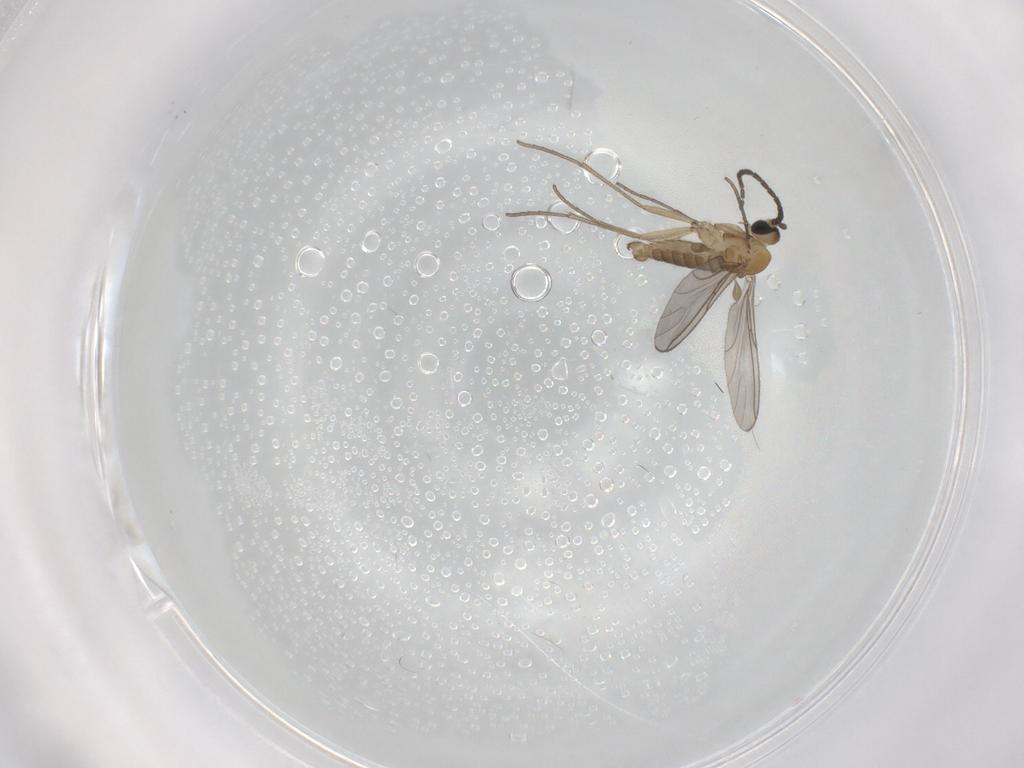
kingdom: Animalia
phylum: Arthropoda
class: Insecta
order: Diptera
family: Sciaridae
